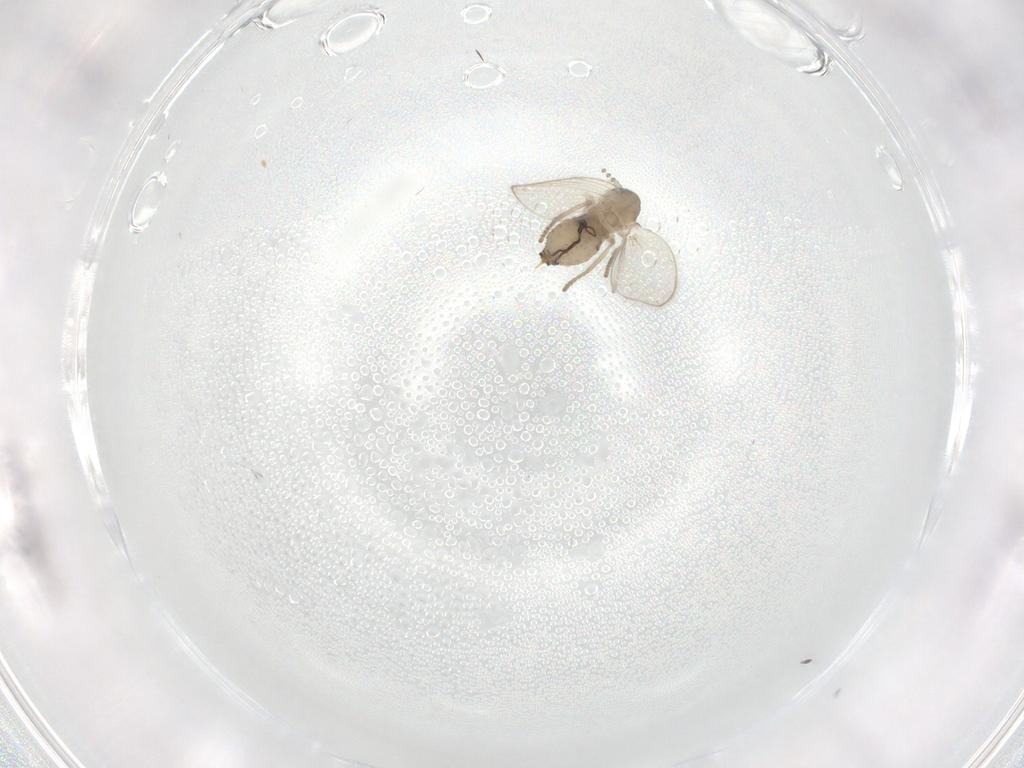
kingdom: Animalia
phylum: Arthropoda
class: Insecta
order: Diptera
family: Psychodidae
